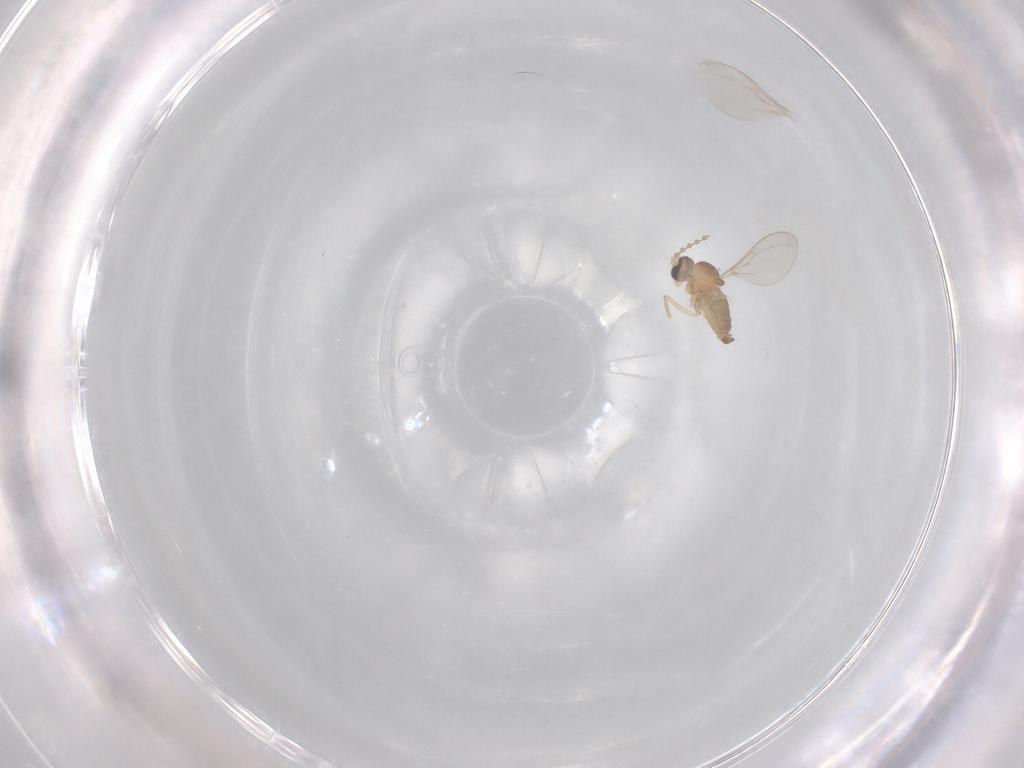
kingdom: Animalia
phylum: Arthropoda
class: Insecta
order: Diptera
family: Cecidomyiidae
